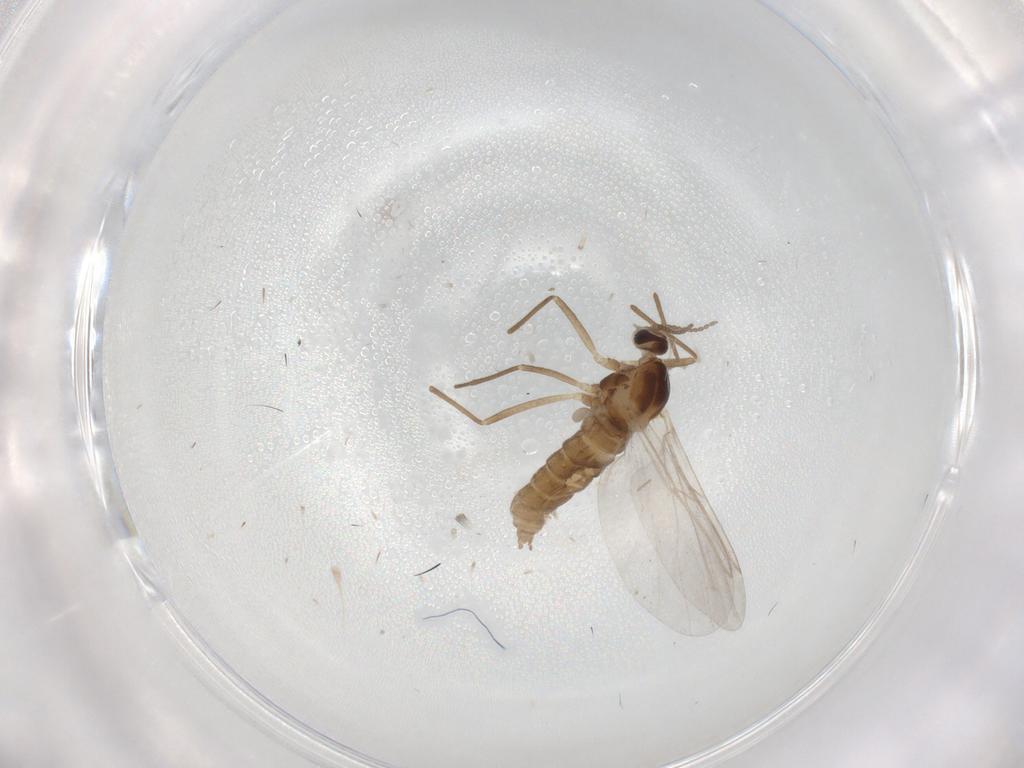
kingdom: Animalia
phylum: Arthropoda
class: Insecta
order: Diptera
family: Cecidomyiidae
